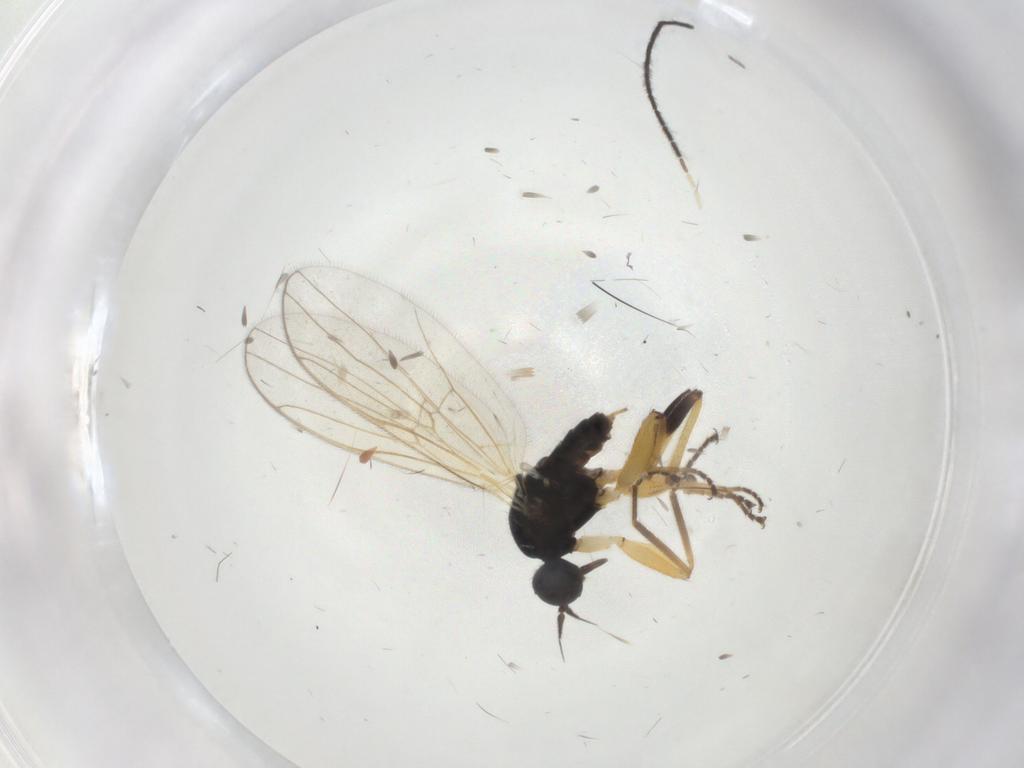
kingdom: Animalia
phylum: Arthropoda
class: Insecta
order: Diptera
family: Hybotidae
